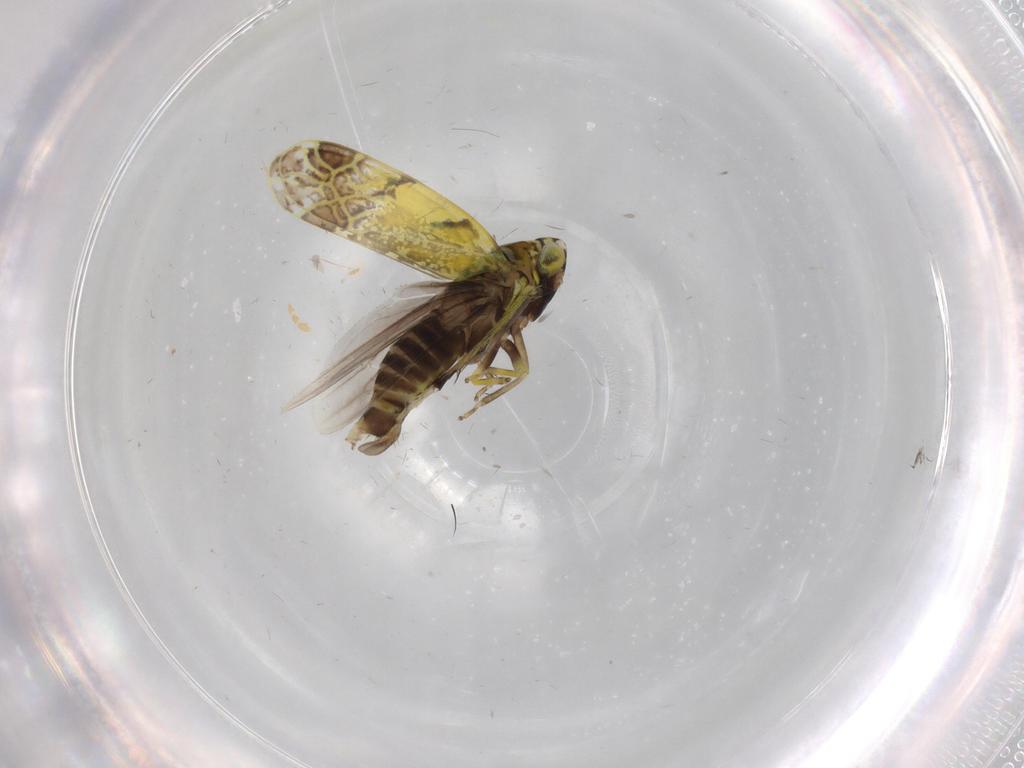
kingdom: Animalia
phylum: Arthropoda
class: Insecta
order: Hemiptera
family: Cicadellidae
